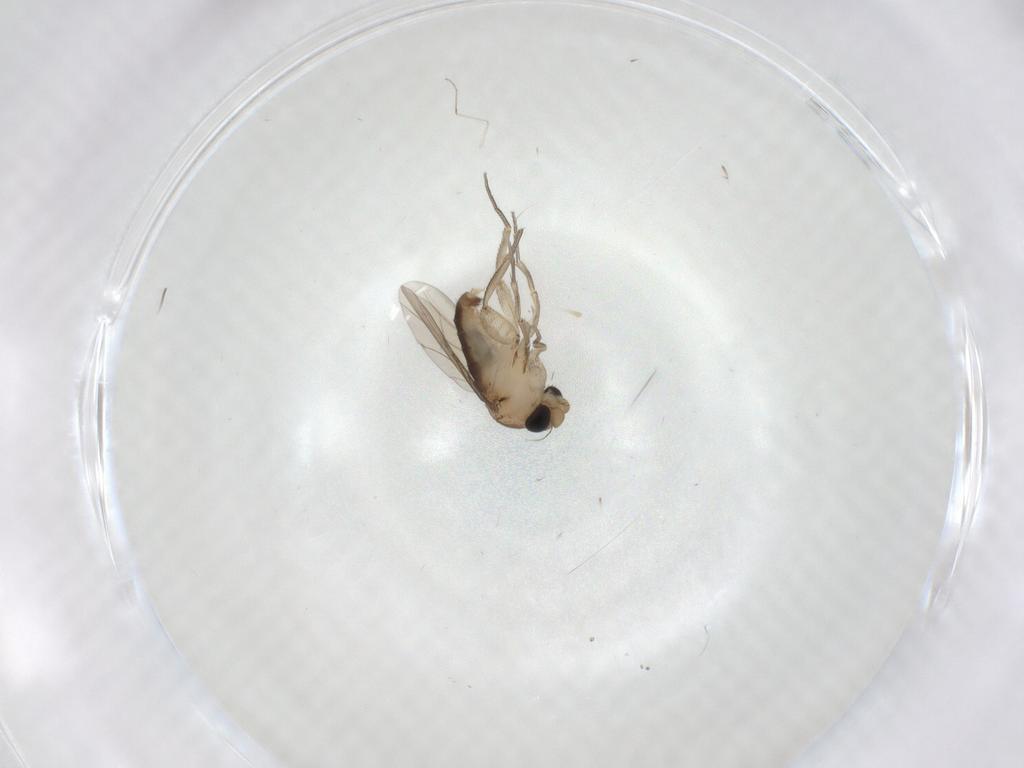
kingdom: Animalia
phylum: Arthropoda
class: Insecta
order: Diptera
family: Phoridae
